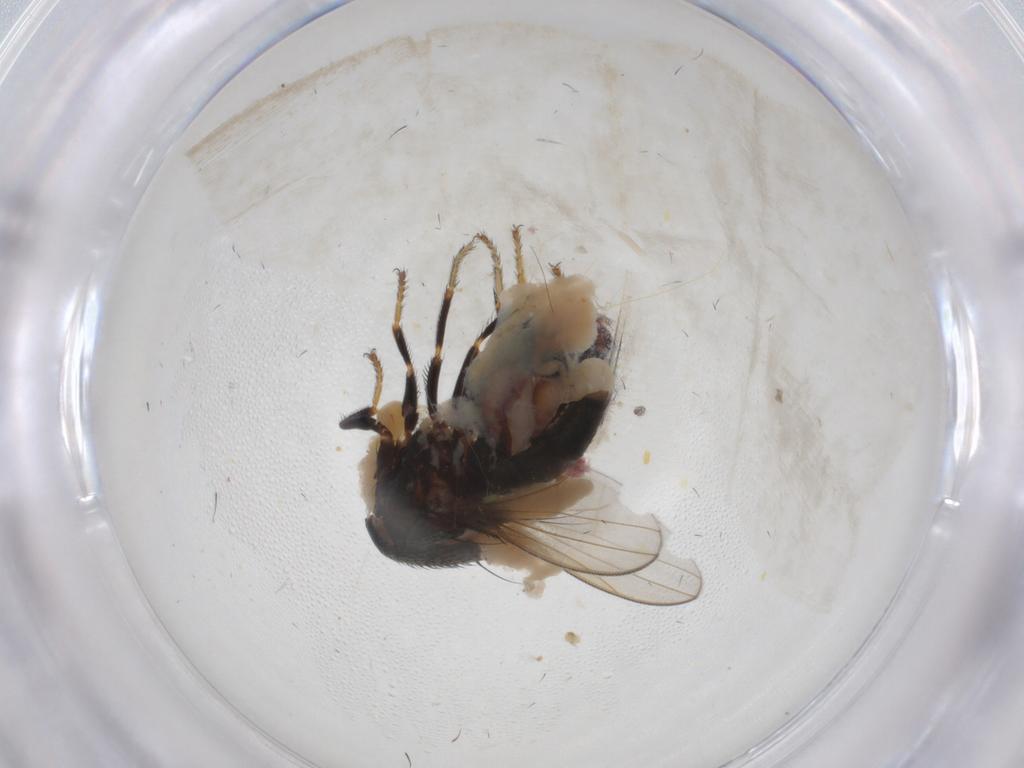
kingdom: Animalia
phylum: Arthropoda
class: Insecta
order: Diptera
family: Ephydridae
